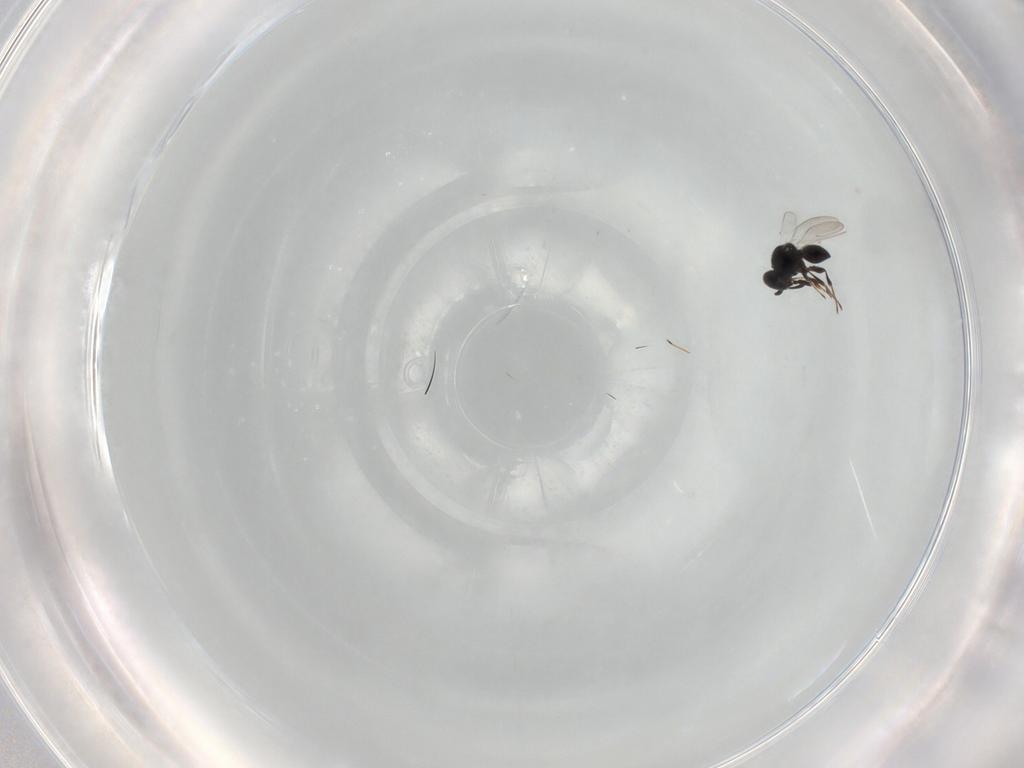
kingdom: Animalia
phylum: Arthropoda
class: Insecta
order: Hymenoptera
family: Platygastridae
